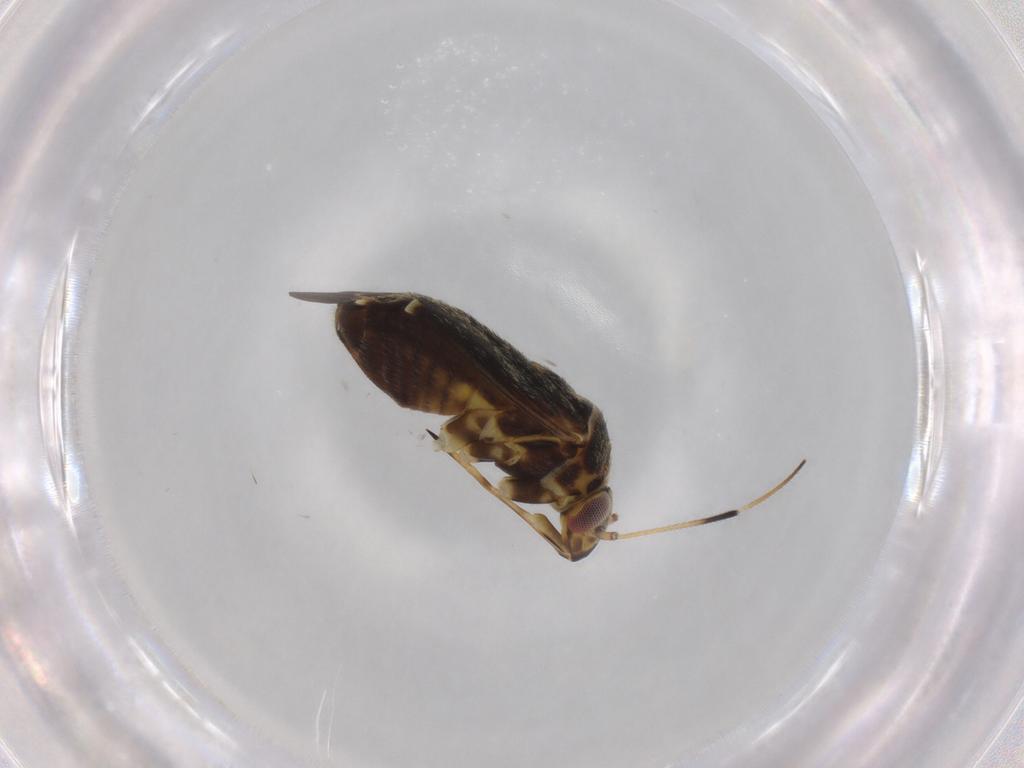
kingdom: Animalia
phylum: Arthropoda
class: Insecta
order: Hemiptera
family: Miridae
